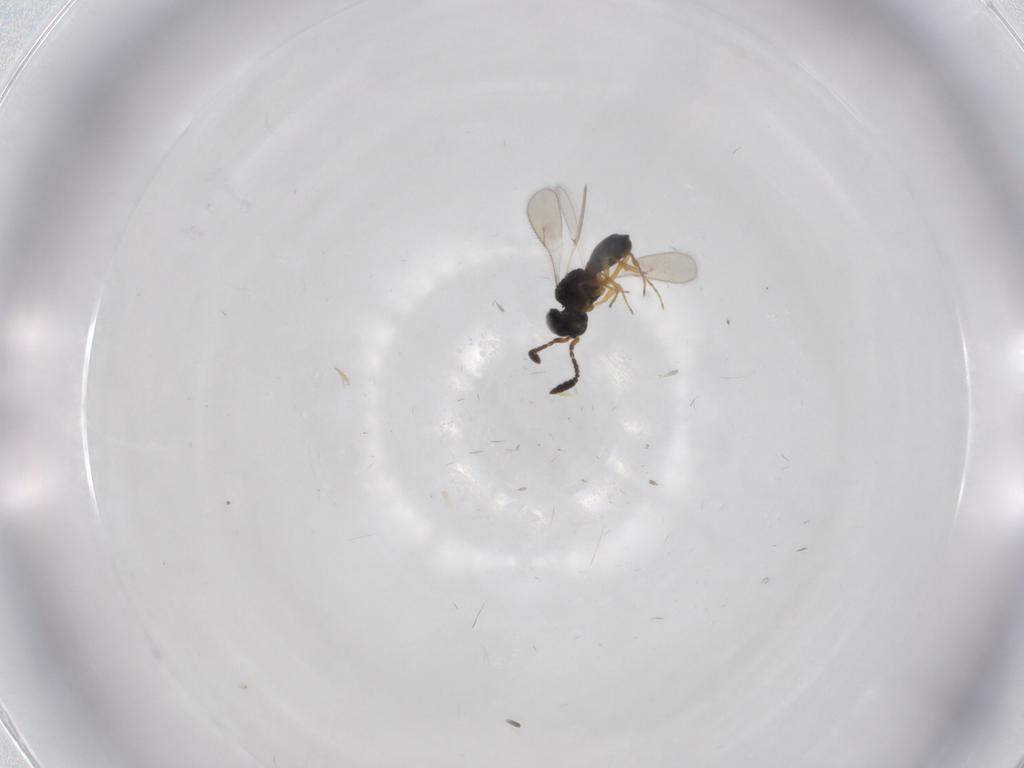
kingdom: Animalia
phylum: Arthropoda
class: Insecta
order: Hymenoptera
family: Scelionidae
